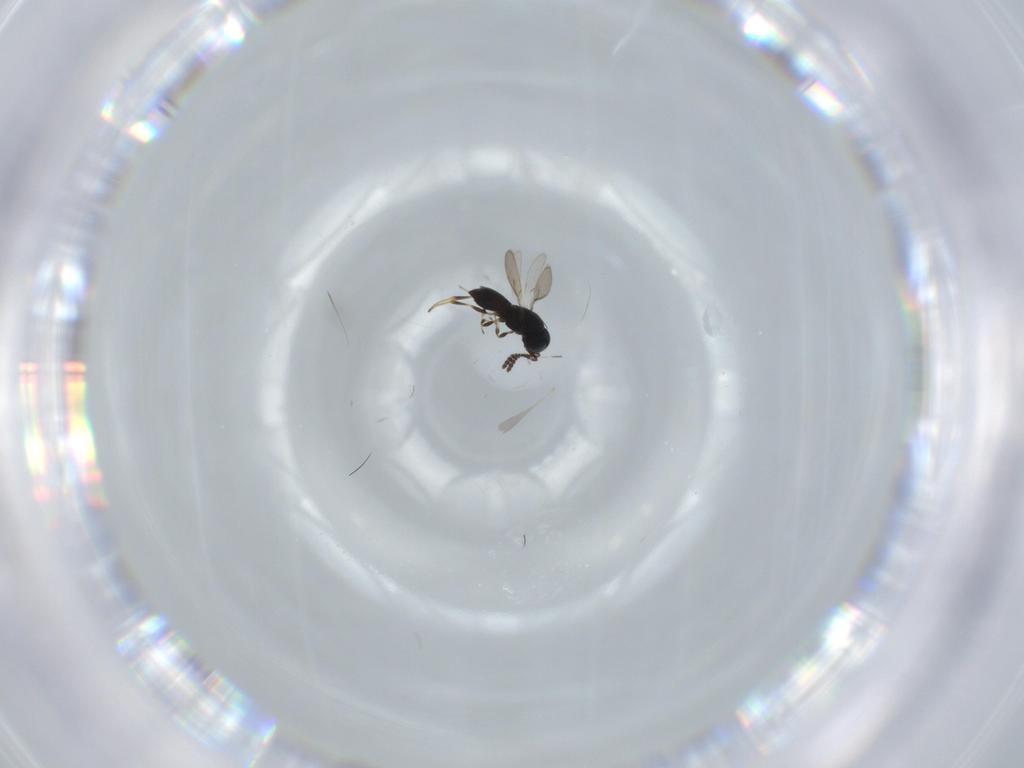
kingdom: Animalia
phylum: Arthropoda
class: Insecta
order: Hymenoptera
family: Scelionidae
